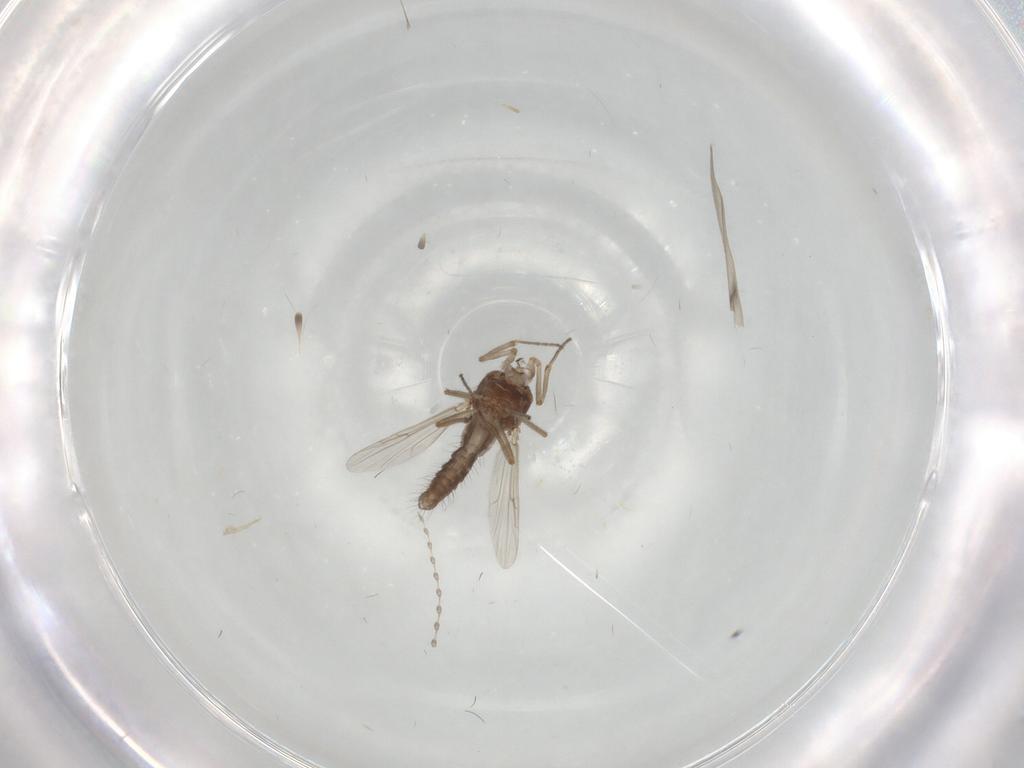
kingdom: Animalia
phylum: Arthropoda
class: Insecta
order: Diptera
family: Ceratopogonidae
